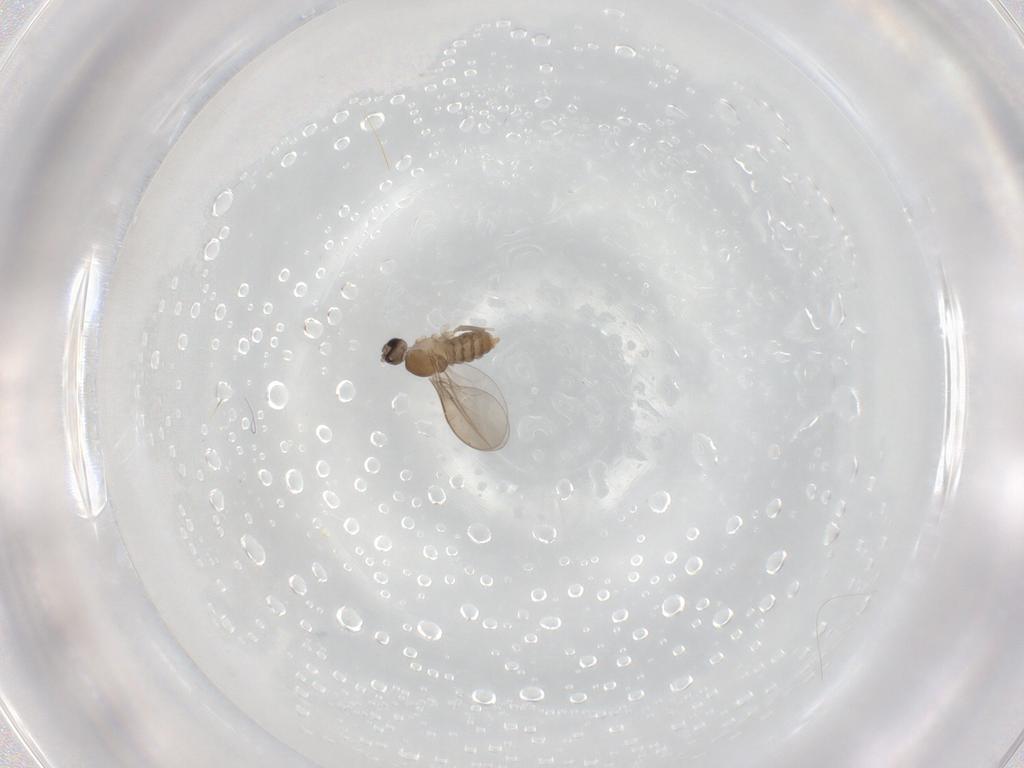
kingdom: Animalia
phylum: Arthropoda
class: Insecta
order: Diptera
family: Cecidomyiidae
